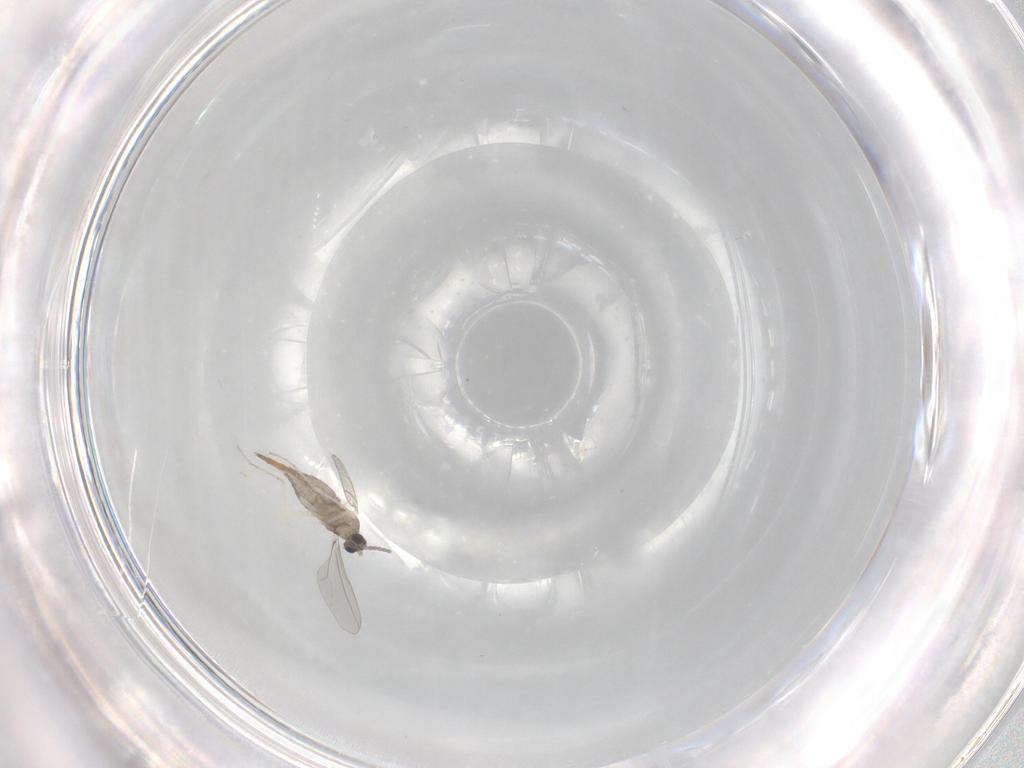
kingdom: Animalia
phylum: Arthropoda
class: Insecta
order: Diptera
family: Cecidomyiidae
